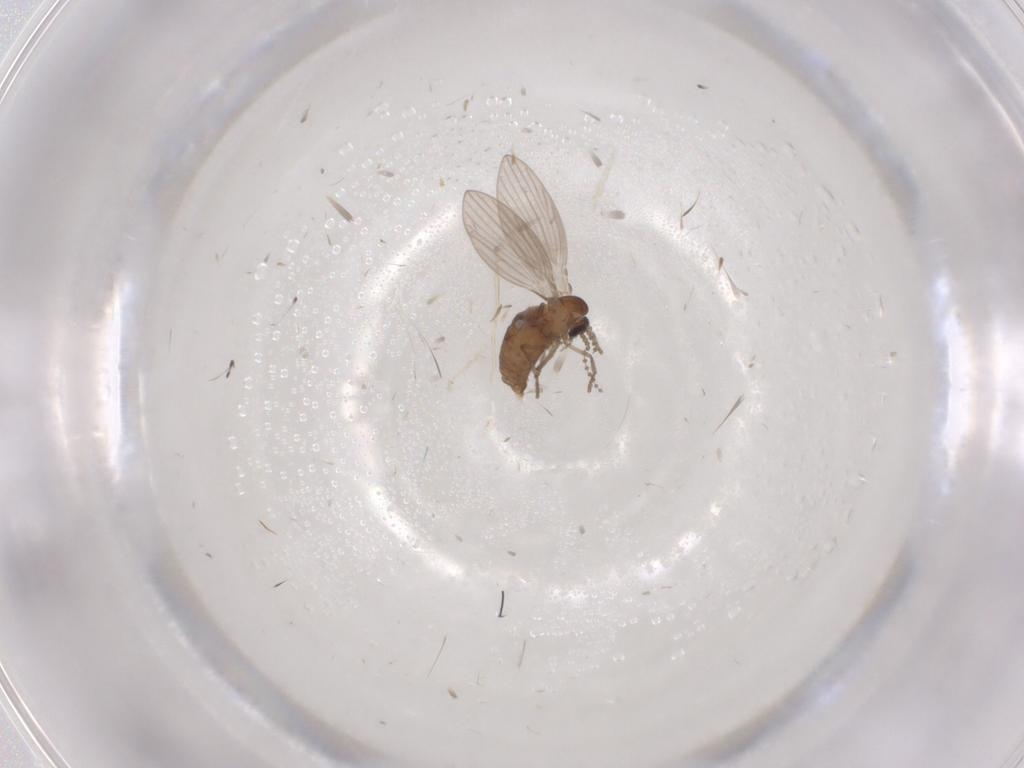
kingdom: Animalia
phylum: Arthropoda
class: Insecta
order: Diptera
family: Psychodidae
